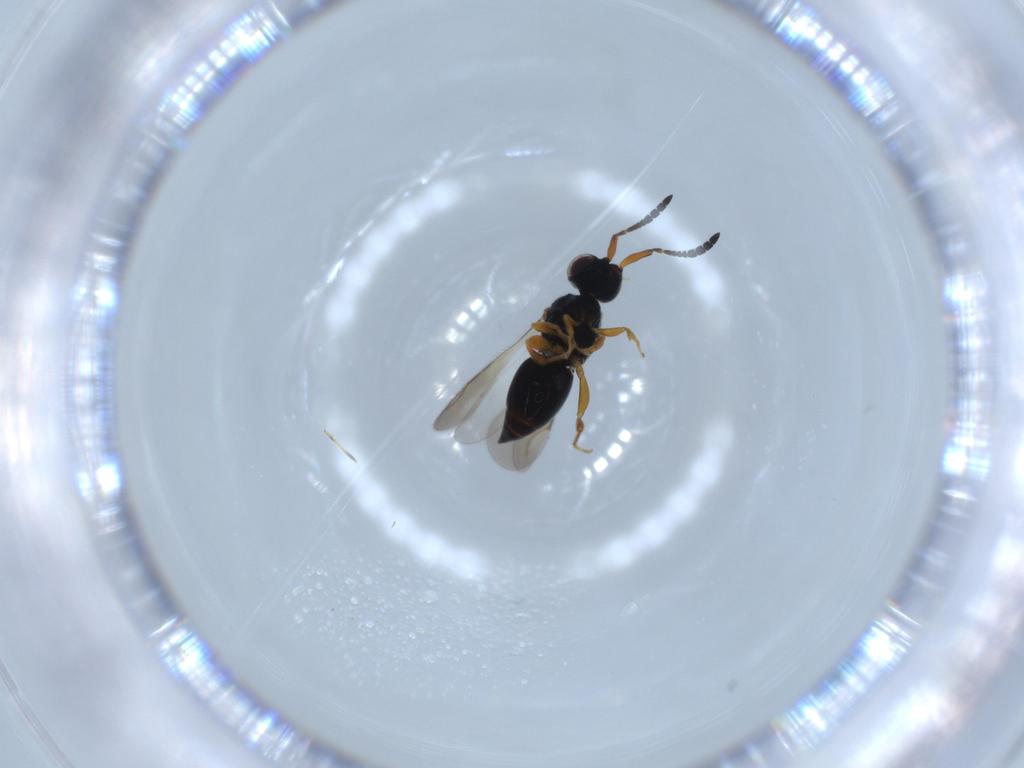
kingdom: Animalia
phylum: Arthropoda
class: Insecta
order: Hymenoptera
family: Ceraphronidae
